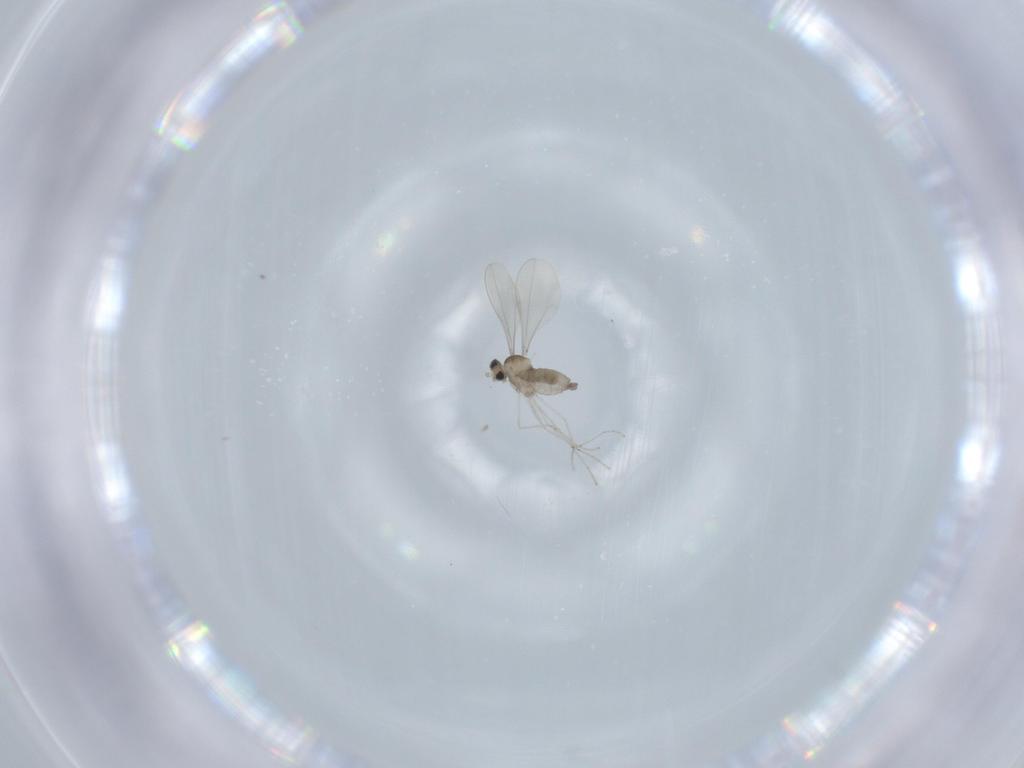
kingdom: Animalia
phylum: Arthropoda
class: Insecta
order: Diptera
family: Cecidomyiidae
